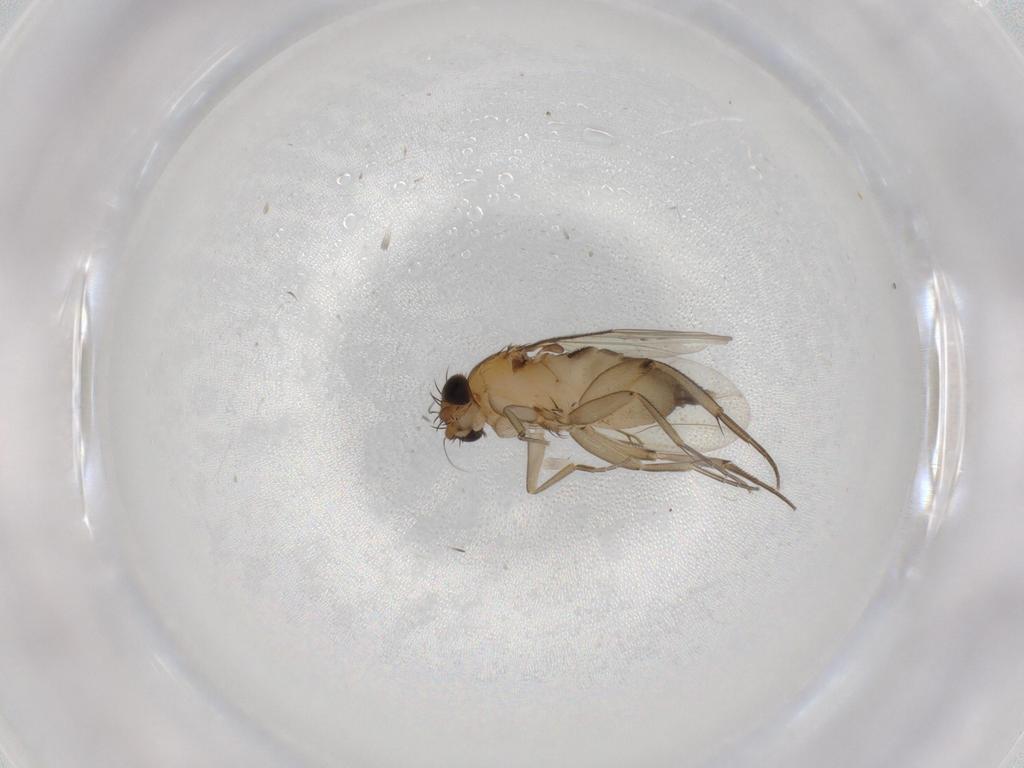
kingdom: Animalia
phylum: Arthropoda
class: Insecta
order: Diptera
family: Phoridae
